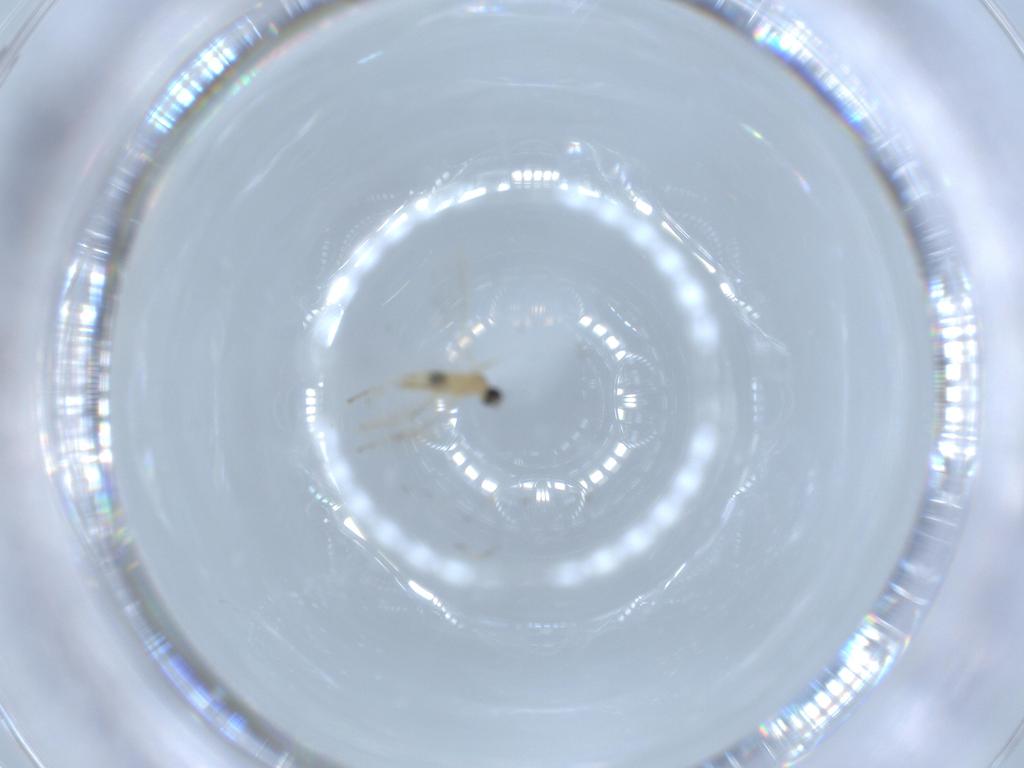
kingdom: Animalia
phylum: Arthropoda
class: Insecta
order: Diptera
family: Cecidomyiidae
